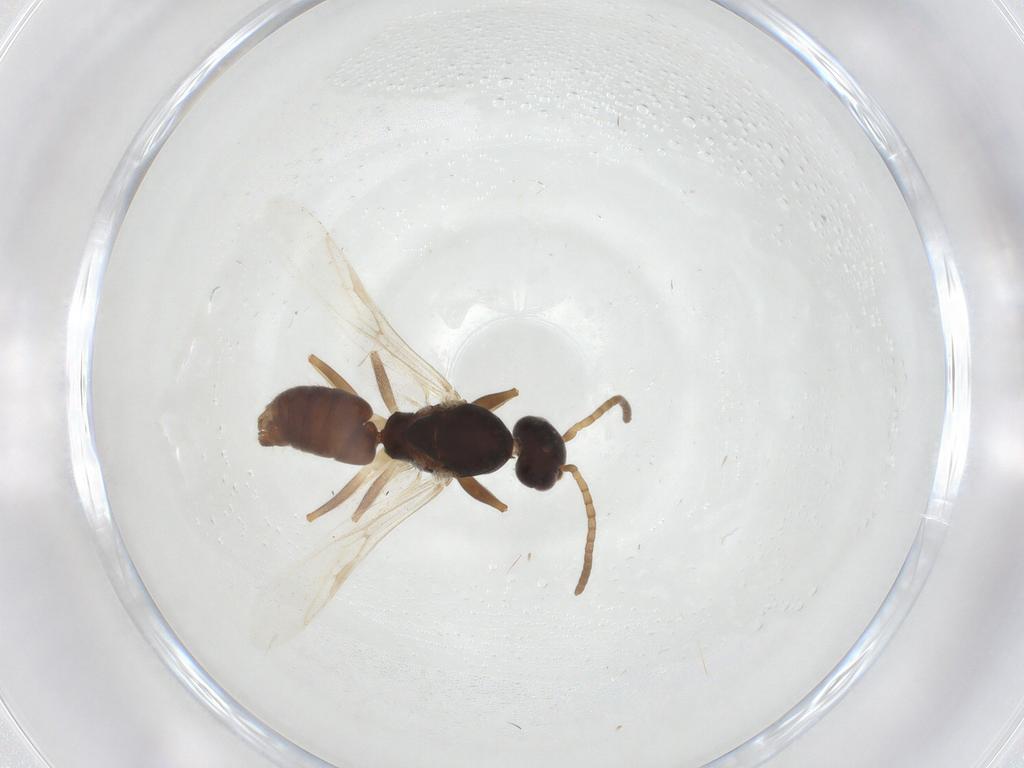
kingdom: Animalia
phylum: Arthropoda
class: Insecta
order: Hymenoptera
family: Formicidae
